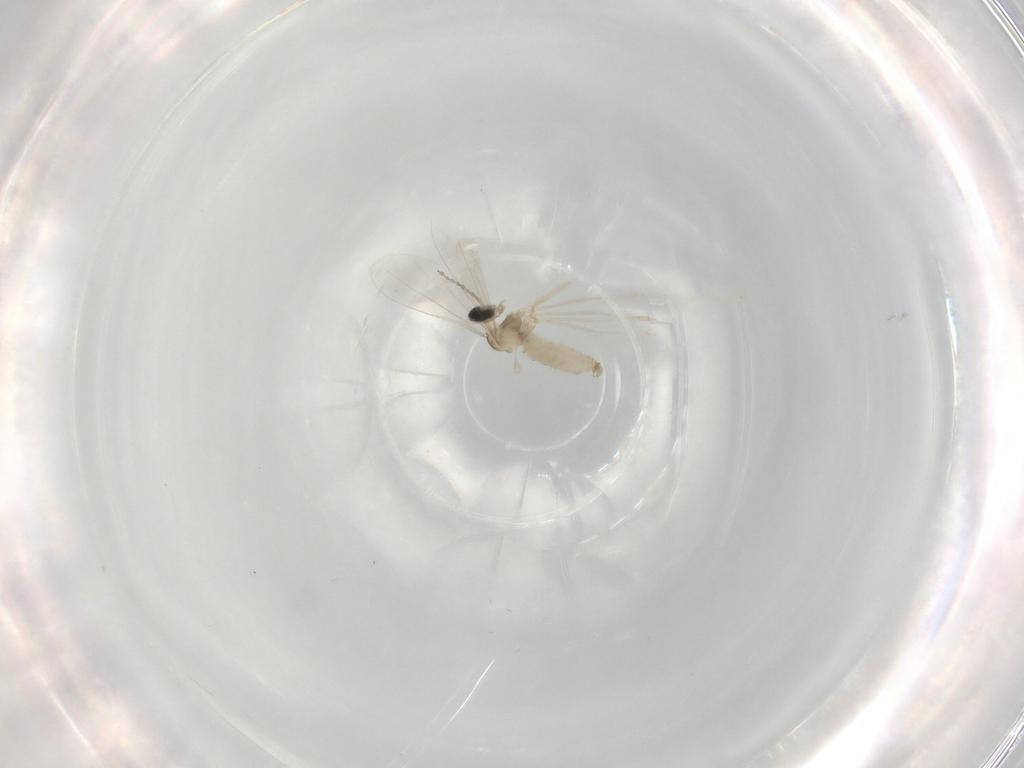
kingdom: Animalia
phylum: Arthropoda
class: Insecta
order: Diptera
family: Cecidomyiidae
